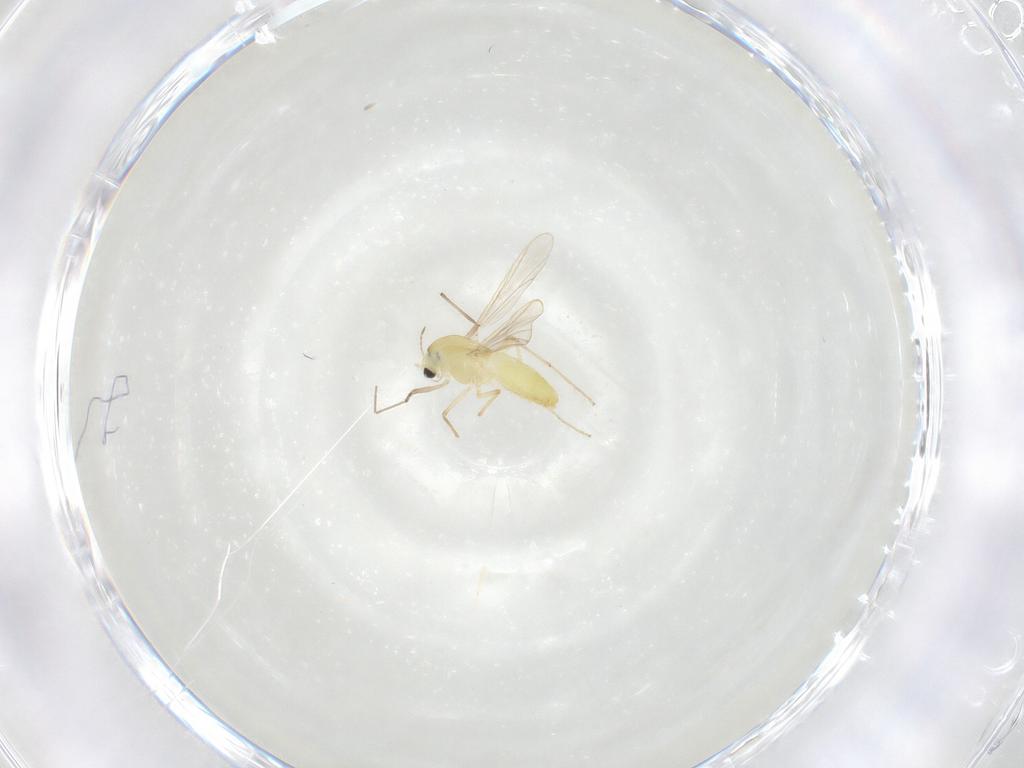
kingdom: Animalia
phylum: Arthropoda
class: Insecta
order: Diptera
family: Chironomidae
